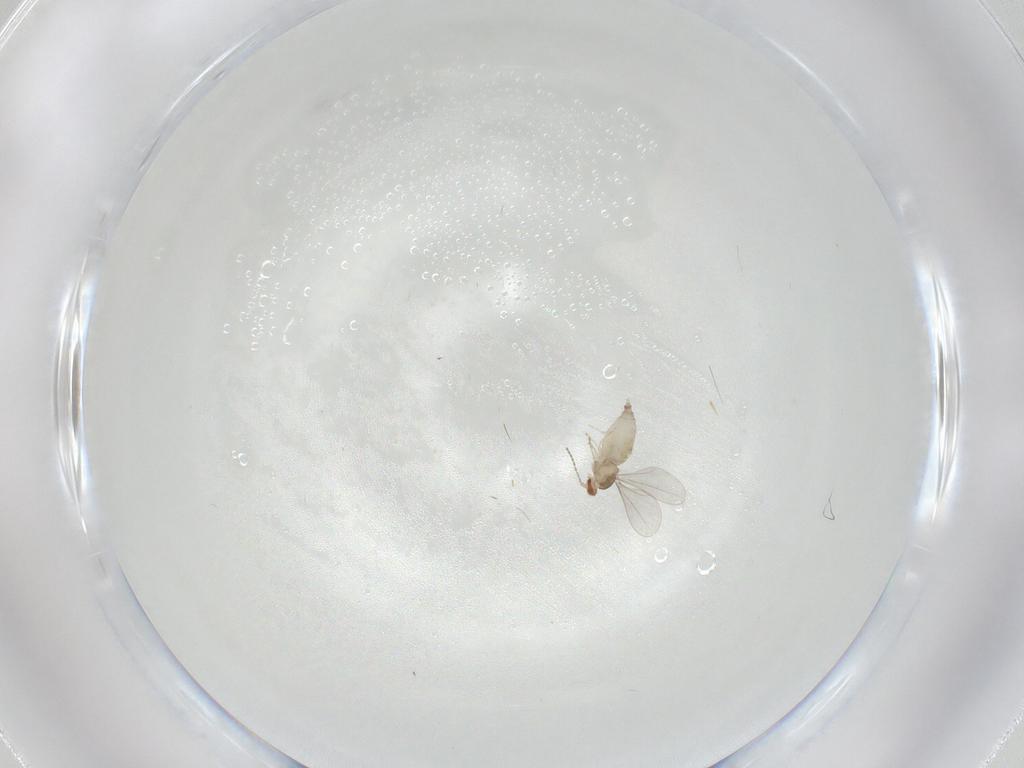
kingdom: Animalia
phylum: Arthropoda
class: Insecta
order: Diptera
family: Cecidomyiidae
